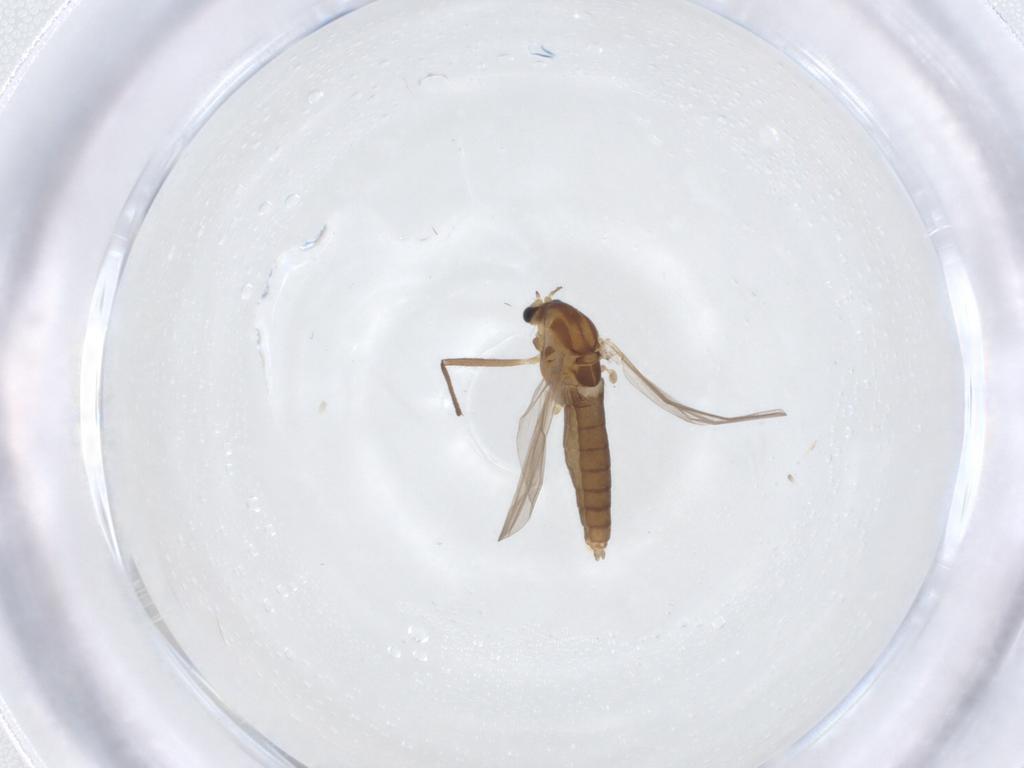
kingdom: Animalia
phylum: Arthropoda
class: Insecta
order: Diptera
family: Chironomidae
